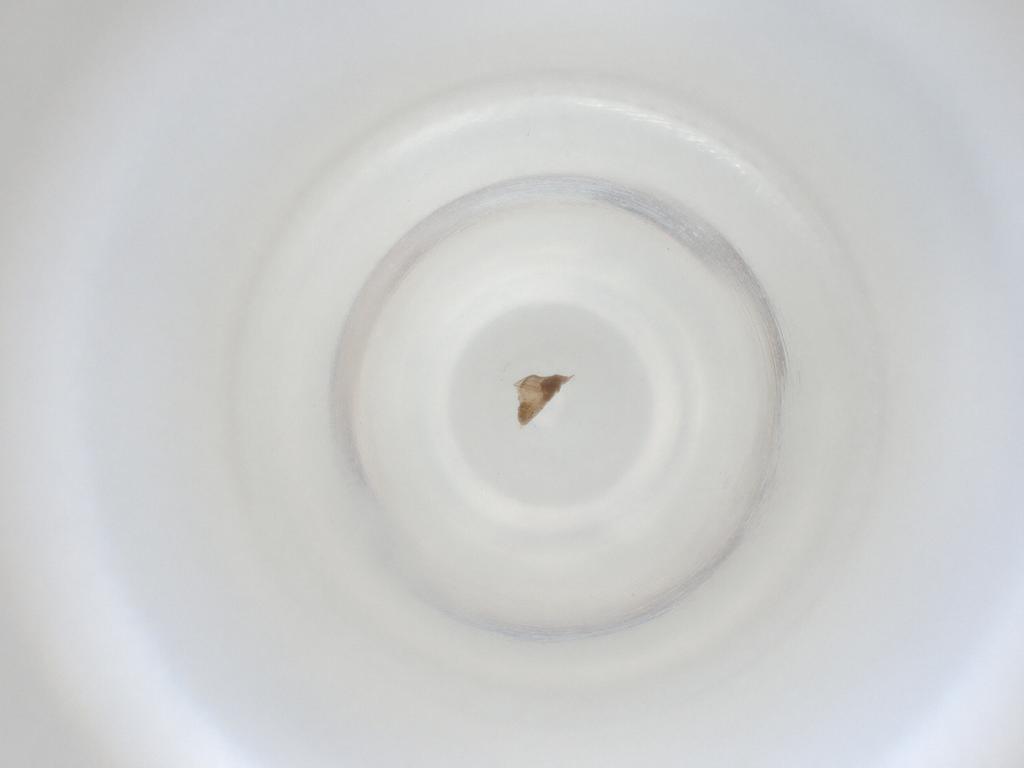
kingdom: Animalia
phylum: Arthropoda
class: Insecta
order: Diptera
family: Cecidomyiidae
